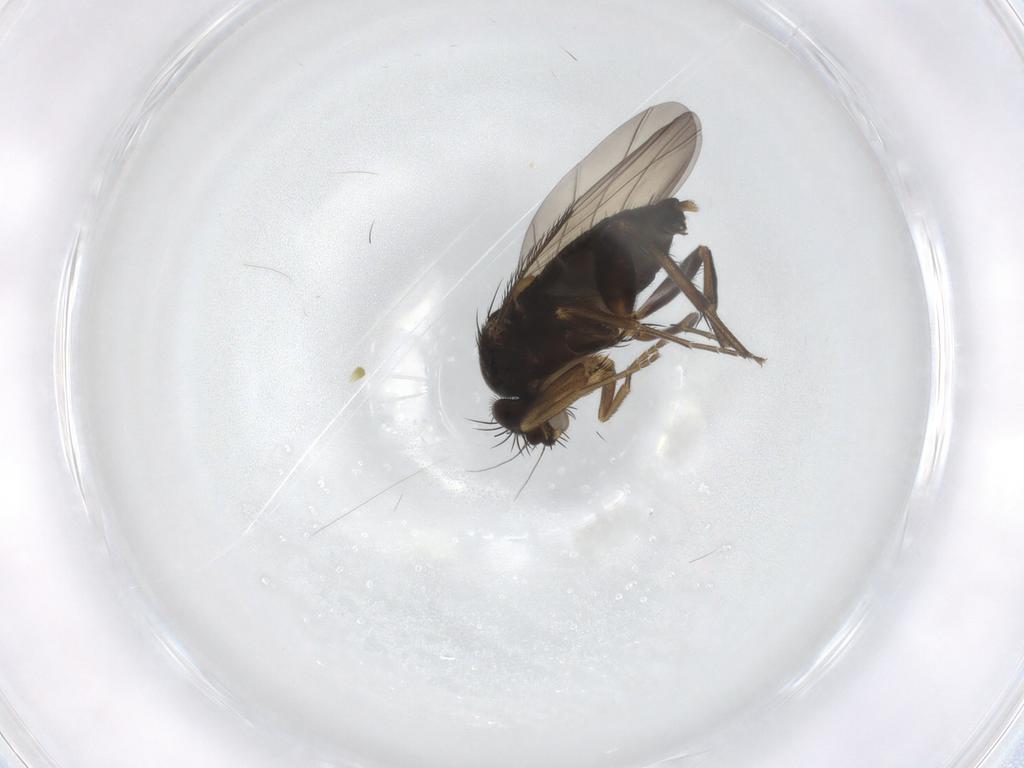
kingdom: Animalia
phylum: Arthropoda
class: Insecta
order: Diptera
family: Phoridae
